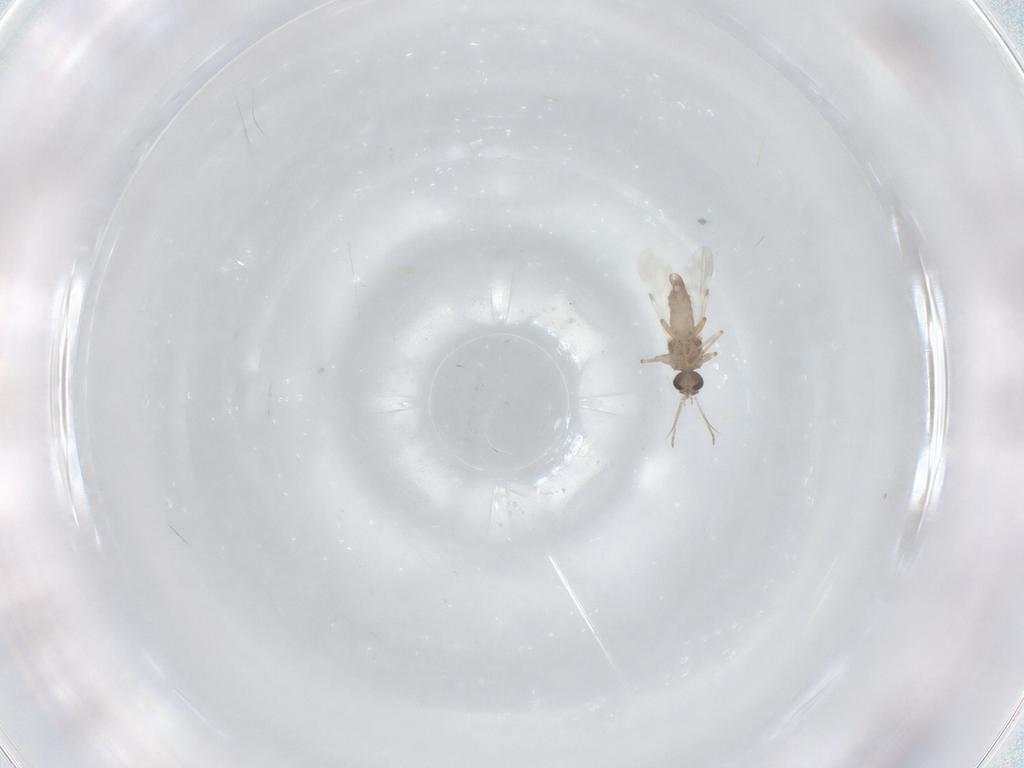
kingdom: Animalia
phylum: Arthropoda
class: Insecta
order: Diptera
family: Ceratopogonidae
